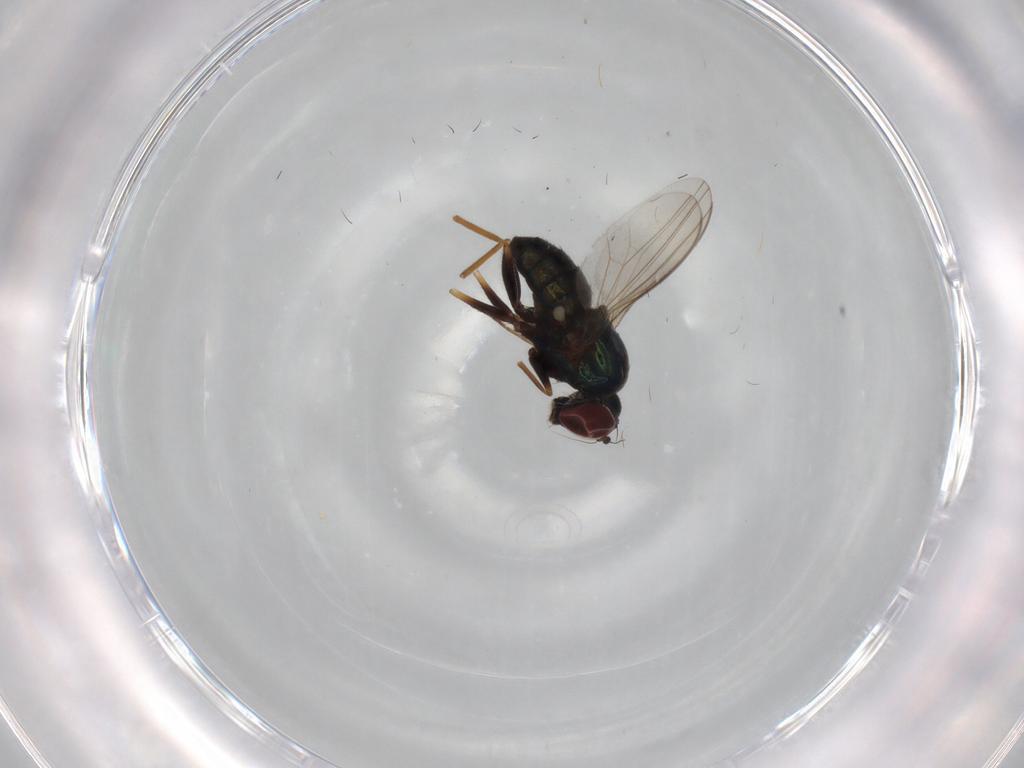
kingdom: Animalia
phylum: Arthropoda
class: Insecta
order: Diptera
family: Dolichopodidae
